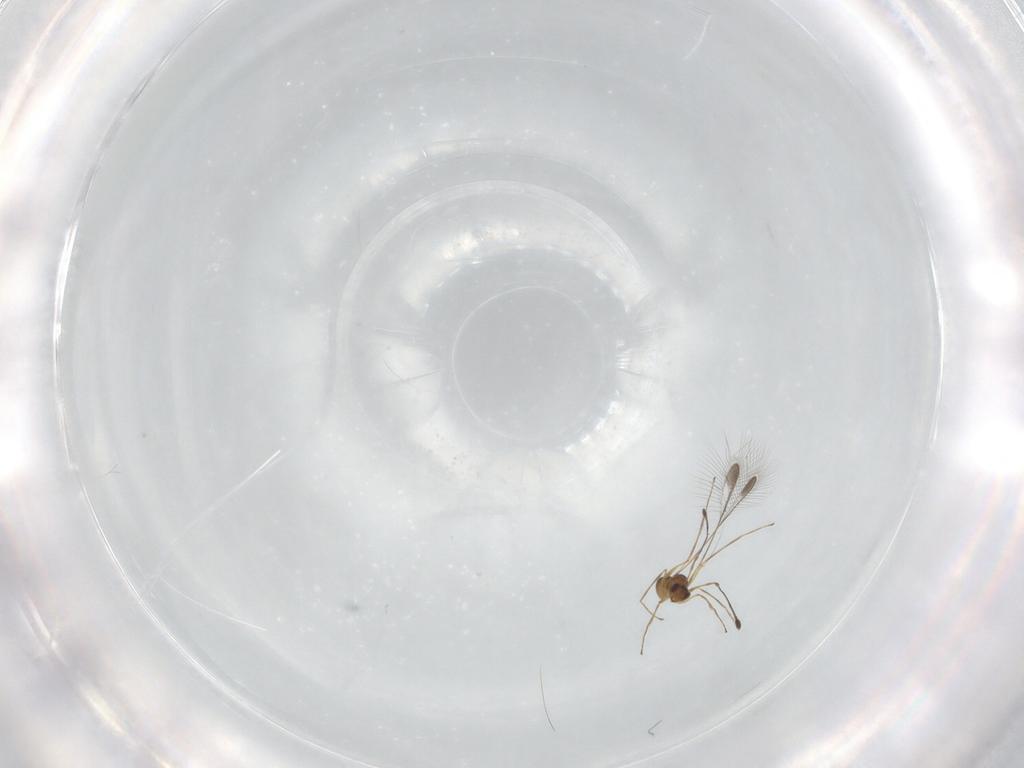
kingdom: Animalia
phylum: Arthropoda
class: Insecta
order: Hymenoptera
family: Mymaridae
